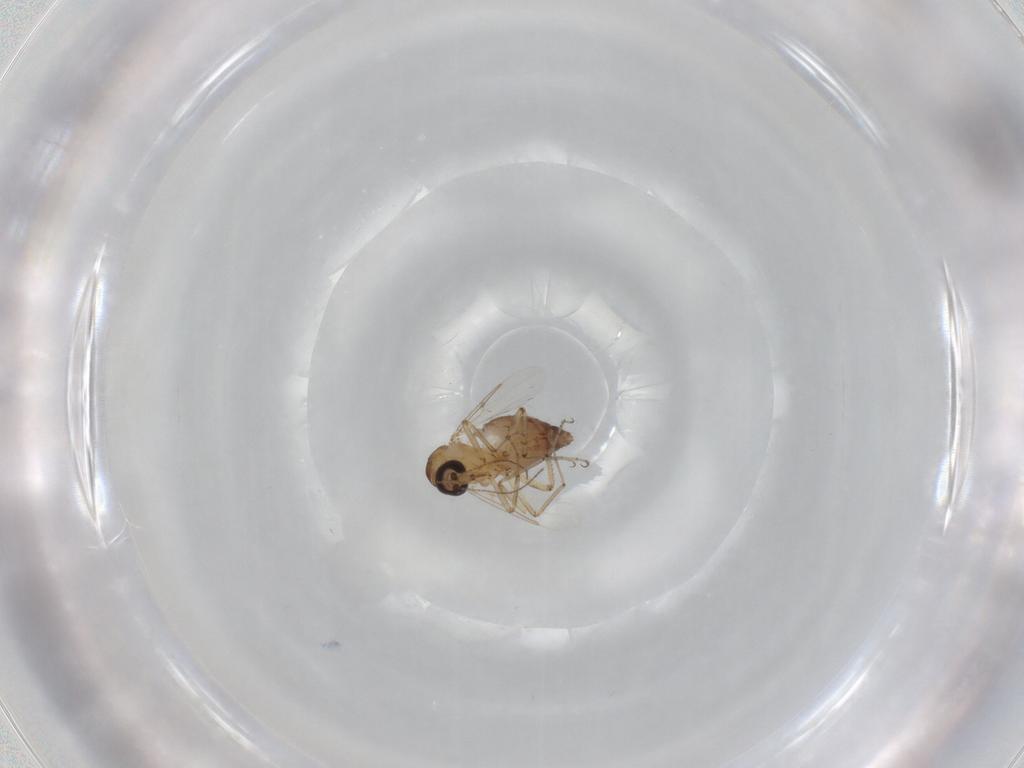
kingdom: Animalia
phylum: Arthropoda
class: Insecta
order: Diptera
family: Ceratopogonidae
